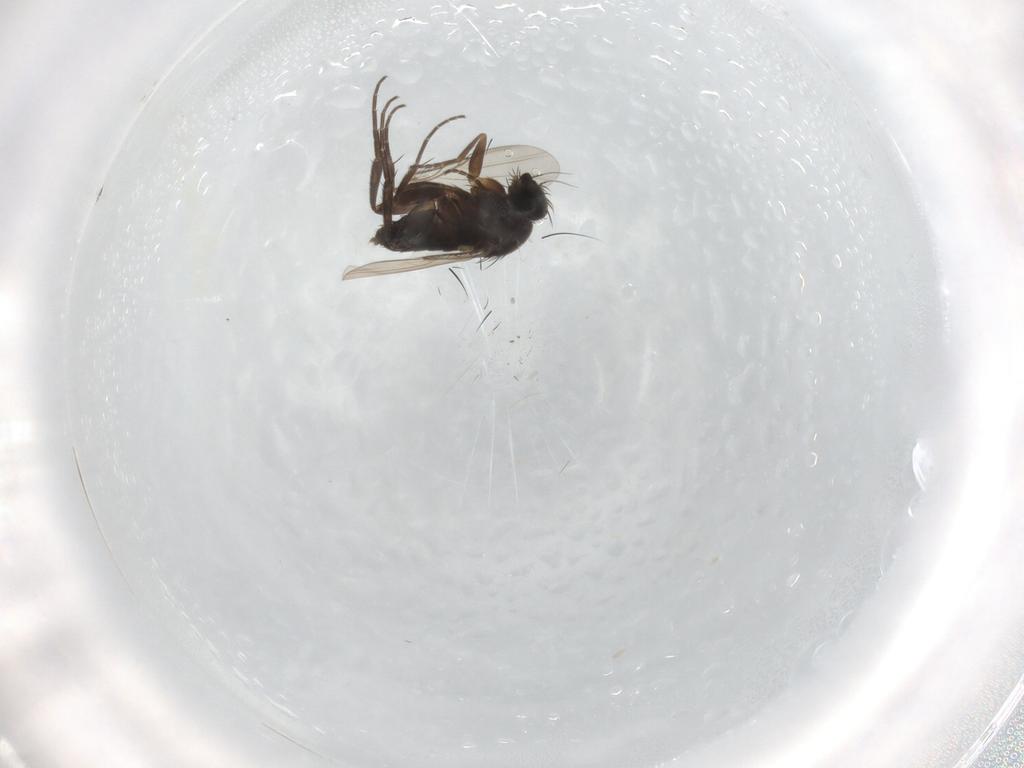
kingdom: Animalia
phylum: Arthropoda
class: Insecta
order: Diptera
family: Phoridae
